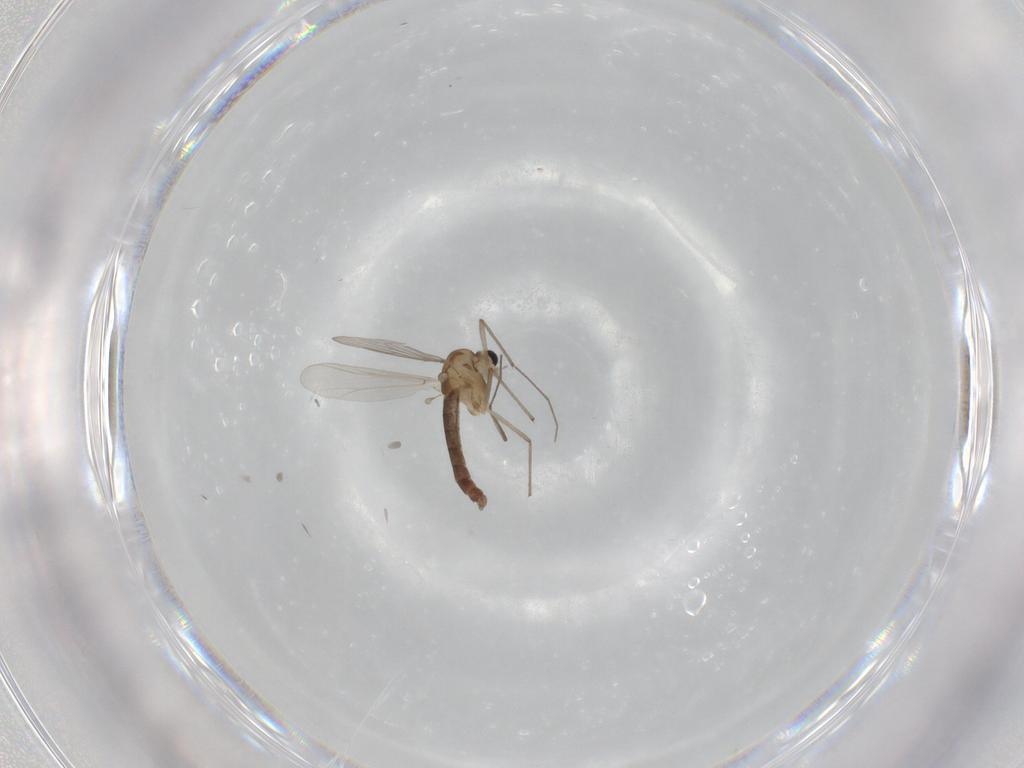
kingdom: Animalia
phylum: Arthropoda
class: Insecta
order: Diptera
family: Chironomidae
